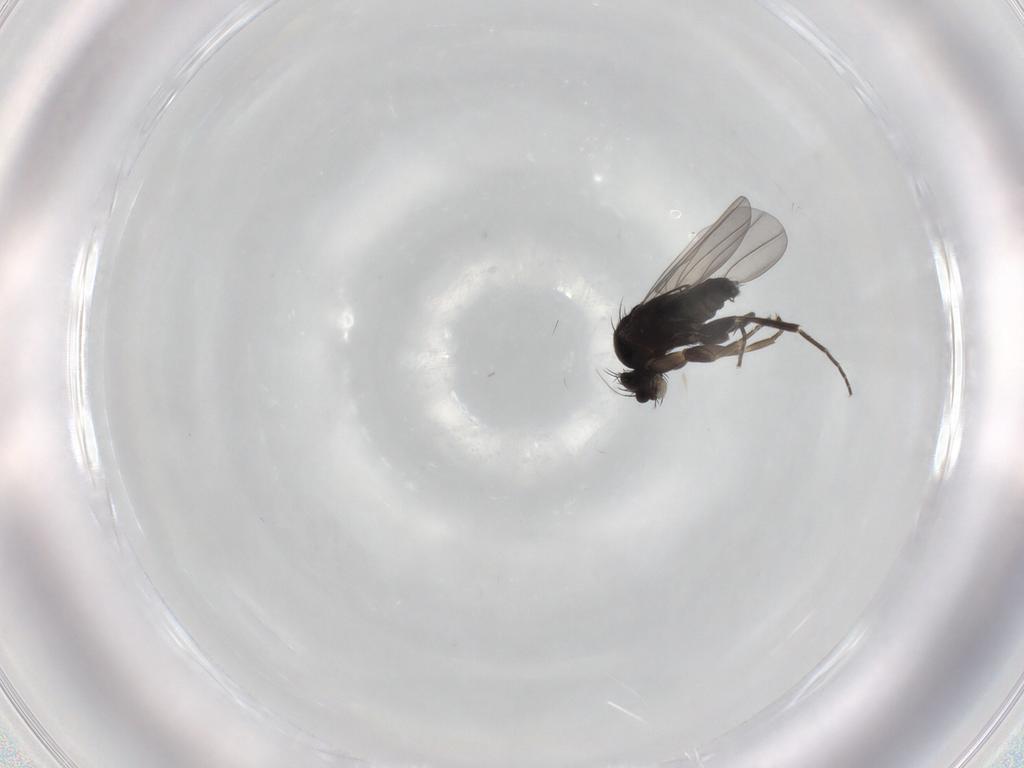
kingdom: Animalia
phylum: Arthropoda
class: Insecta
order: Diptera
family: Phoridae
